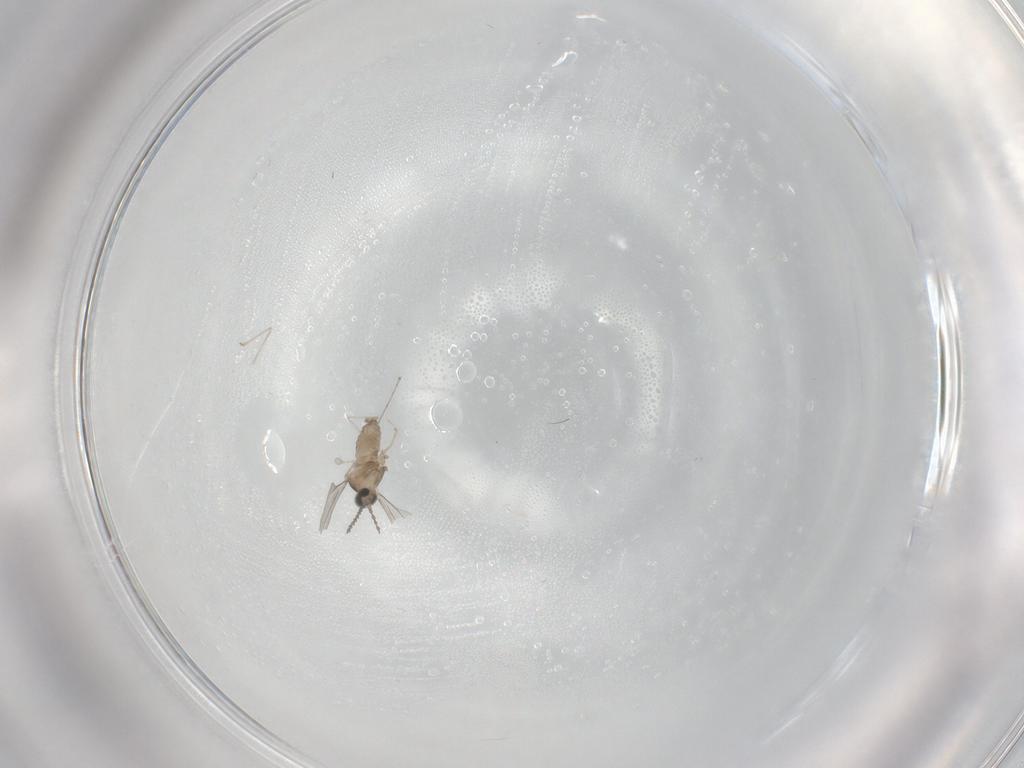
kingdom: Animalia
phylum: Arthropoda
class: Insecta
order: Diptera
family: Cecidomyiidae
